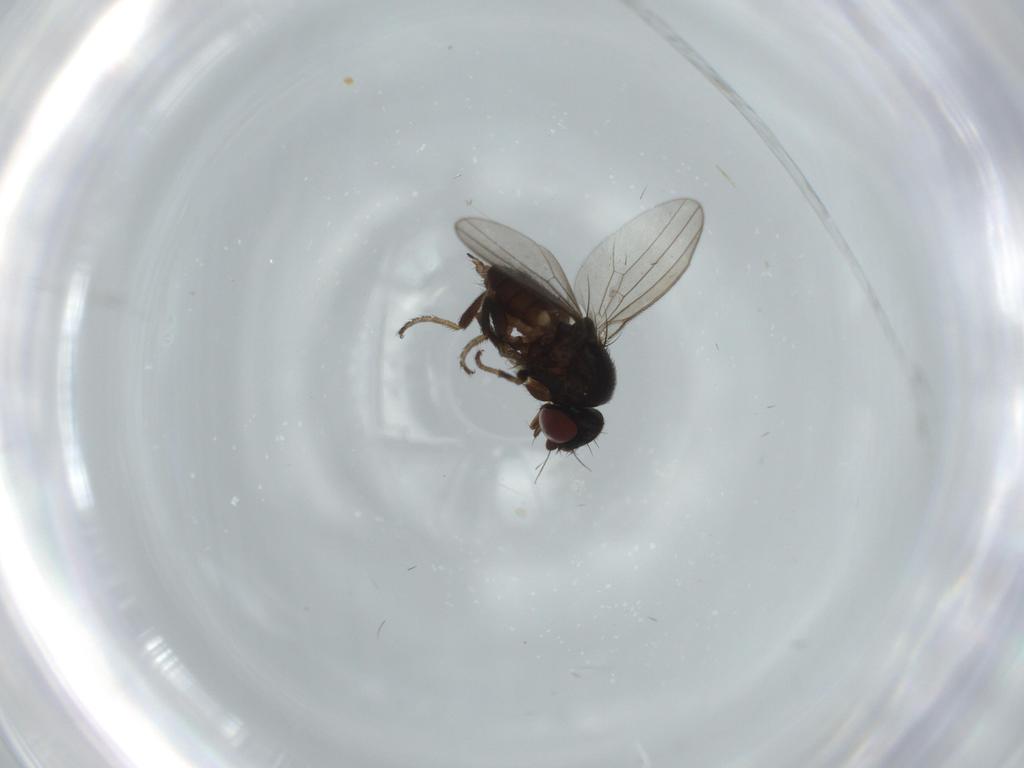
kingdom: Animalia
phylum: Arthropoda
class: Insecta
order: Diptera
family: Milichiidae
